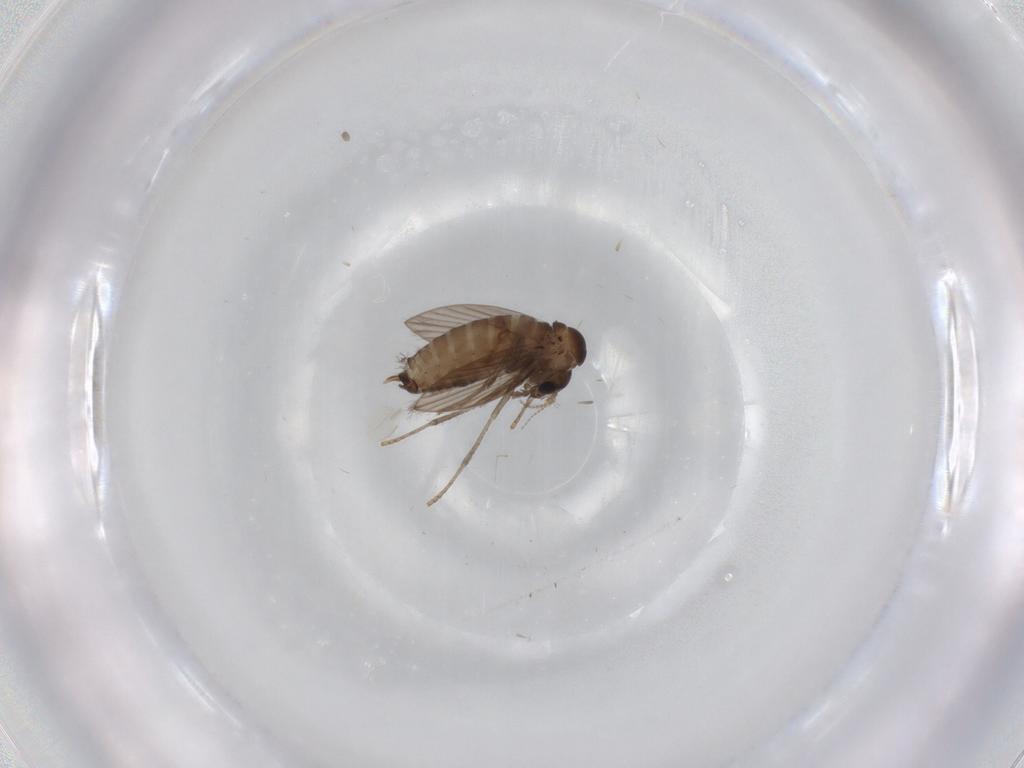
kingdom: Animalia
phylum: Arthropoda
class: Insecta
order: Diptera
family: Psychodidae
